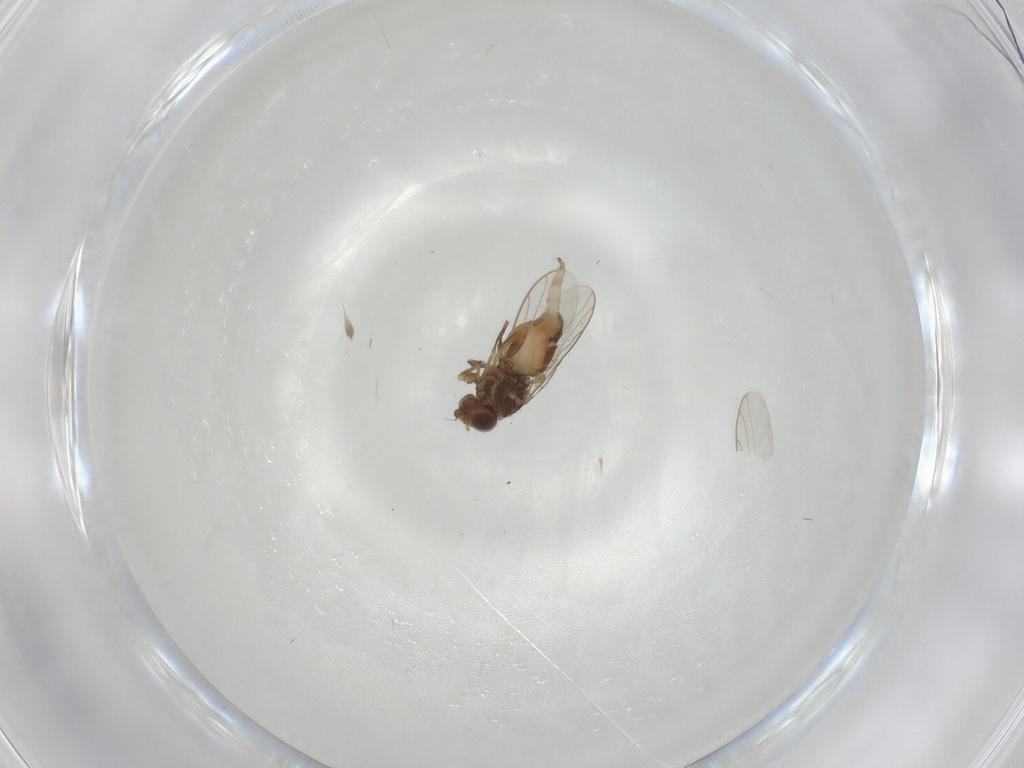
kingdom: Animalia
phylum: Arthropoda
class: Insecta
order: Diptera
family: Chloropidae
